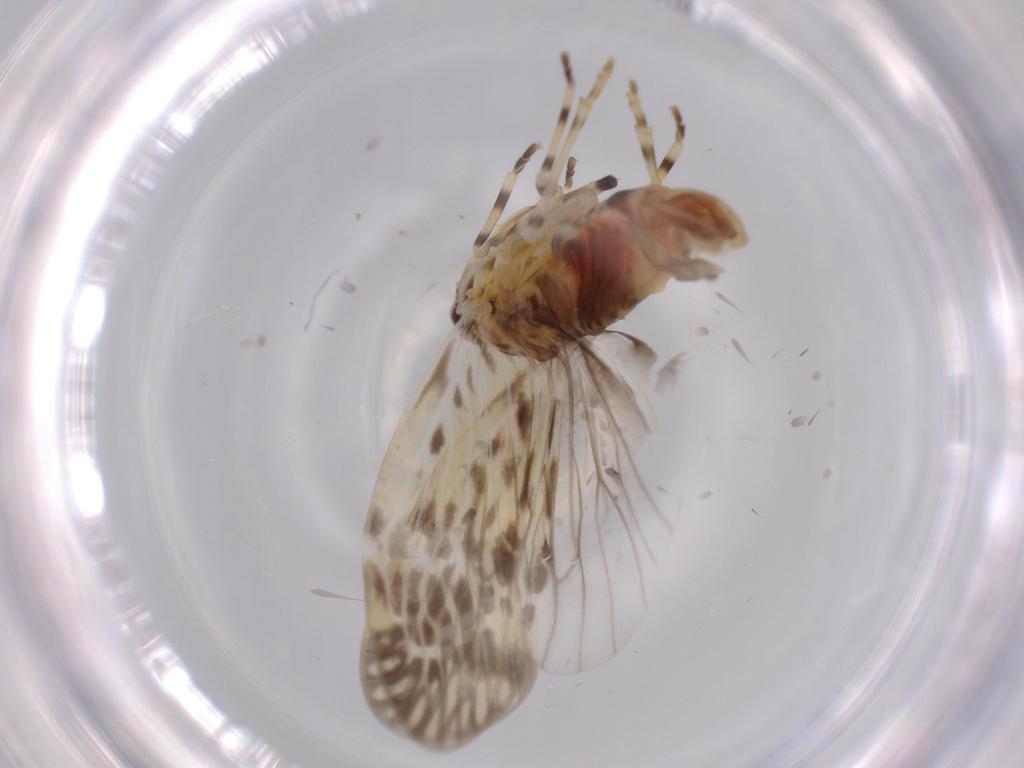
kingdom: Animalia
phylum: Arthropoda
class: Insecta
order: Hemiptera
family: Derbidae
